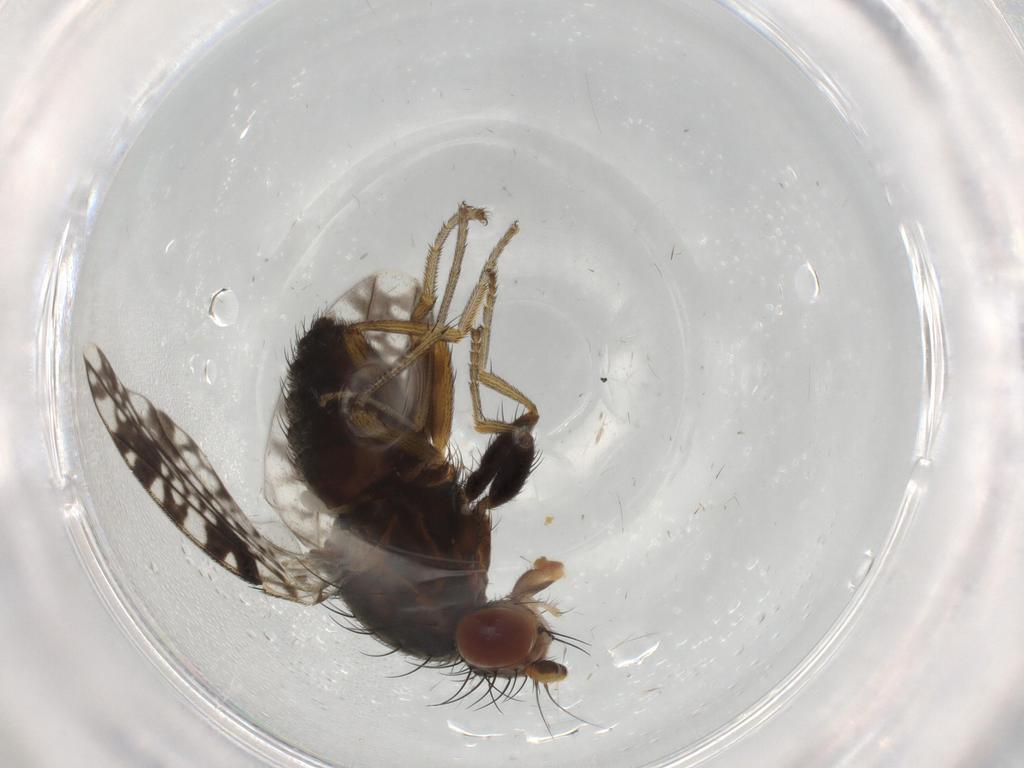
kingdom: Animalia
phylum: Arthropoda
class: Insecta
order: Diptera
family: Tephritidae
